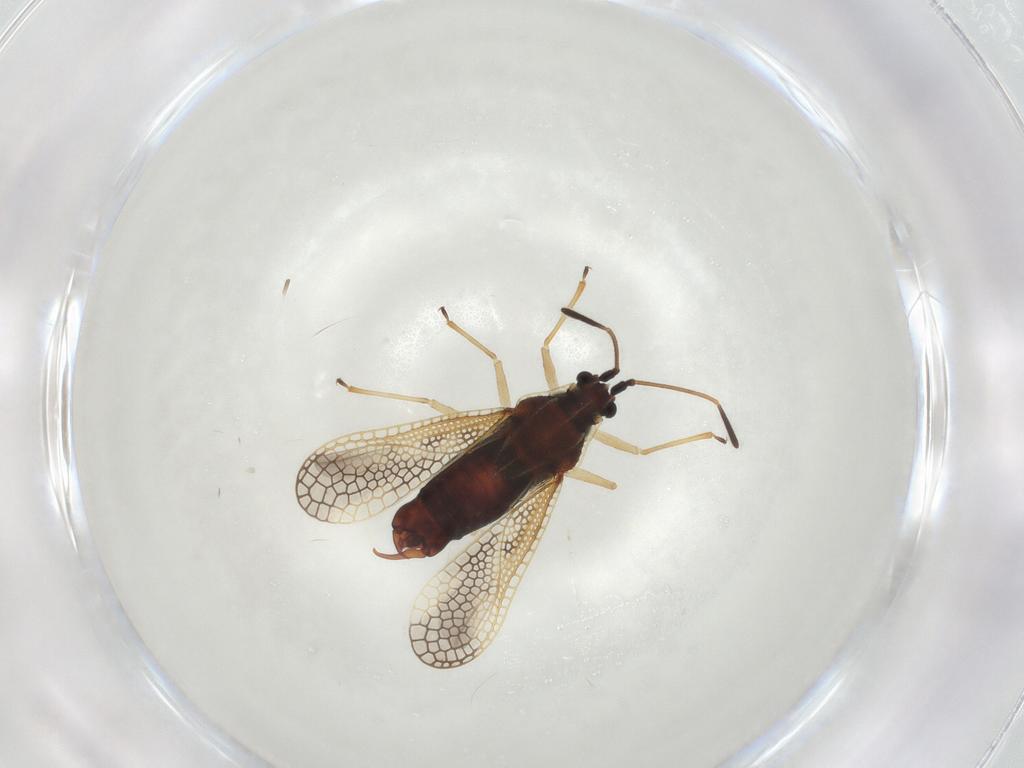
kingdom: Animalia
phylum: Arthropoda
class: Insecta
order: Hemiptera
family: Tingidae
